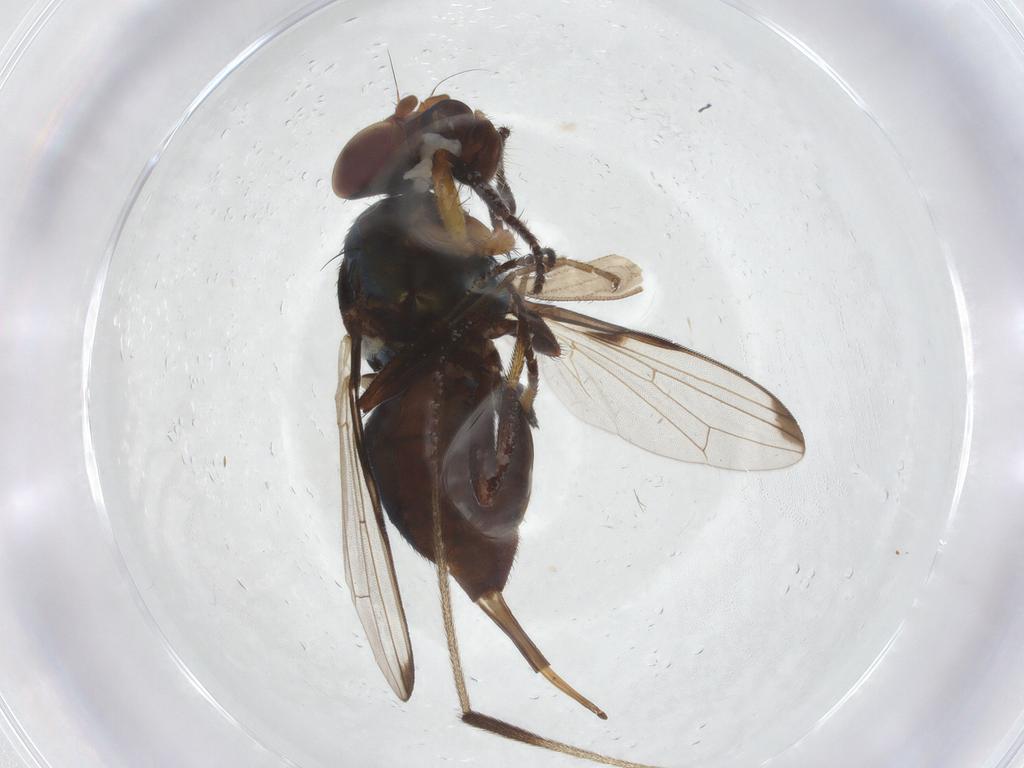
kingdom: Animalia
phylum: Arthropoda
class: Insecta
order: Diptera
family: Ulidiidae
